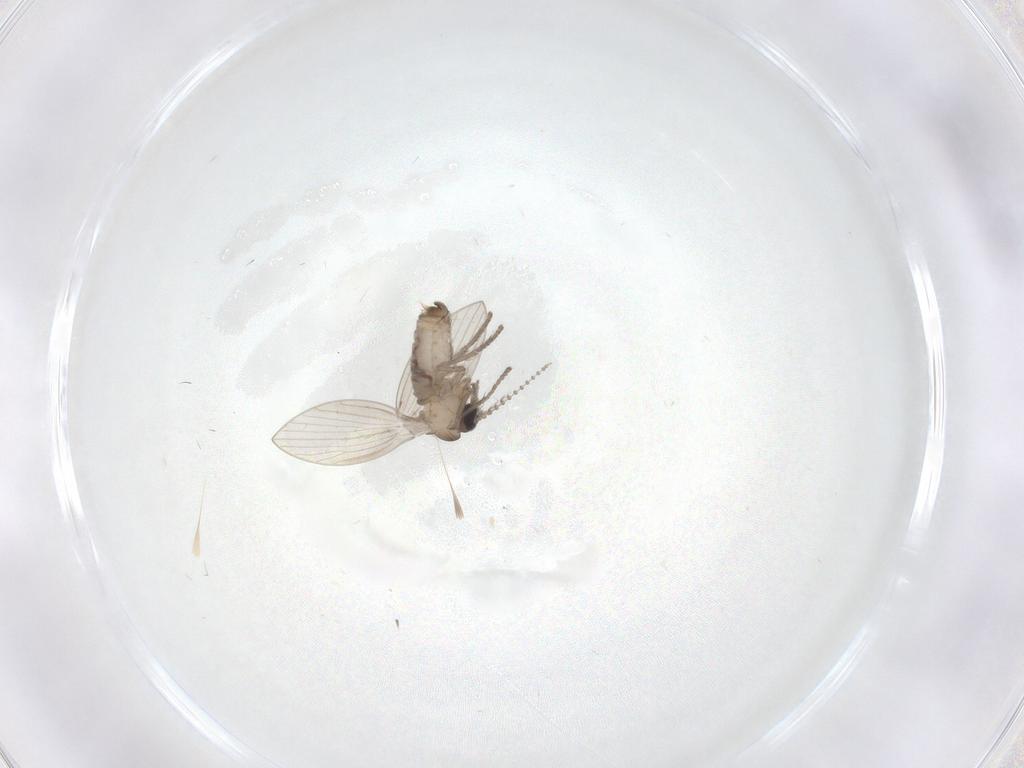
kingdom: Animalia
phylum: Arthropoda
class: Insecta
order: Diptera
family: Psychodidae
